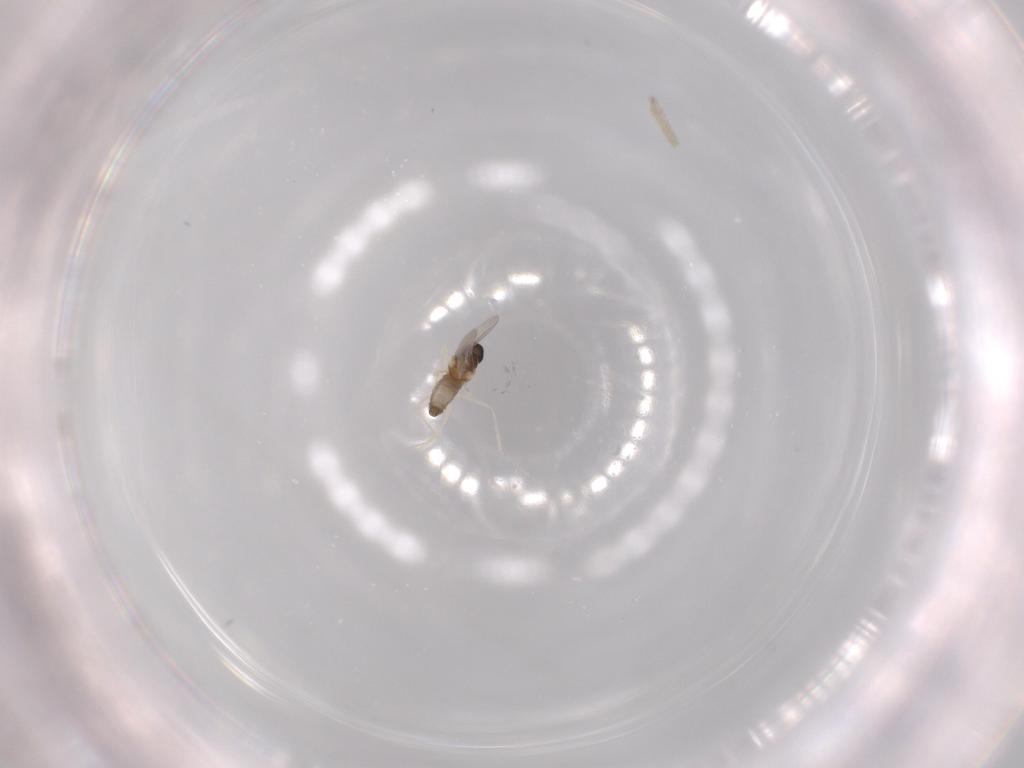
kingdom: Animalia
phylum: Arthropoda
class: Insecta
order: Diptera
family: Cecidomyiidae
